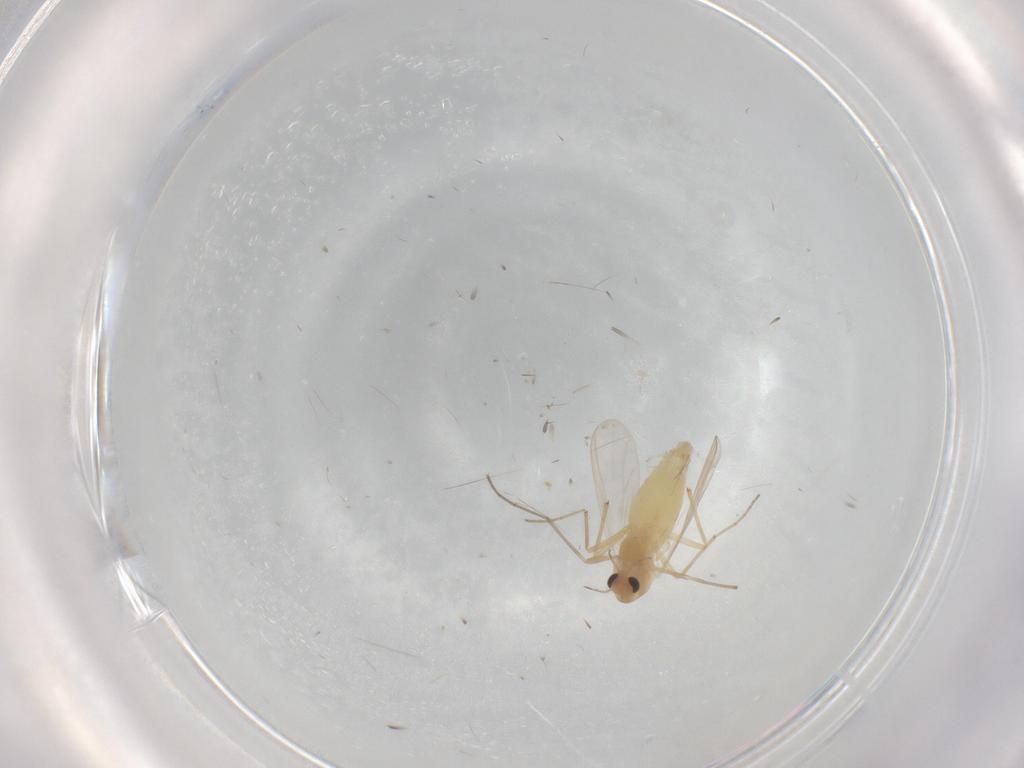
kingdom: Animalia
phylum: Arthropoda
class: Insecta
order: Diptera
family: Chironomidae
